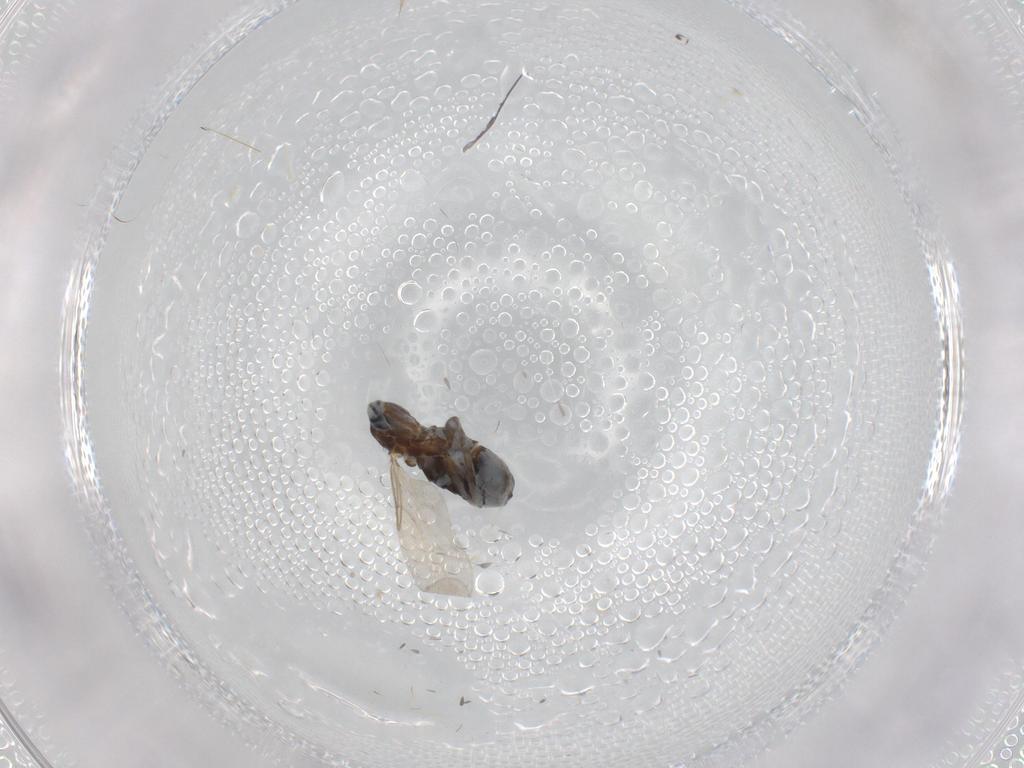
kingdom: Animalia
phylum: Arthropoda
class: Insecta
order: Diptera
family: Scatopsidae
